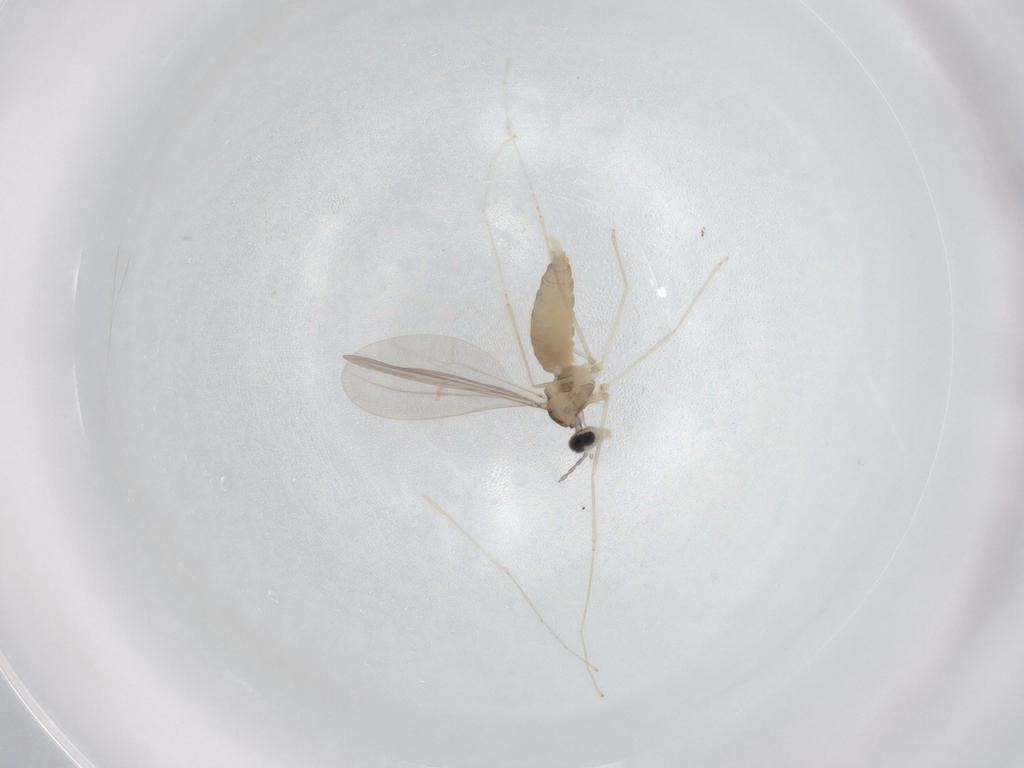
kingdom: Animalia
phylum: Arthropoda
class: Insecta
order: Diptera
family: Cecidomyiidae
